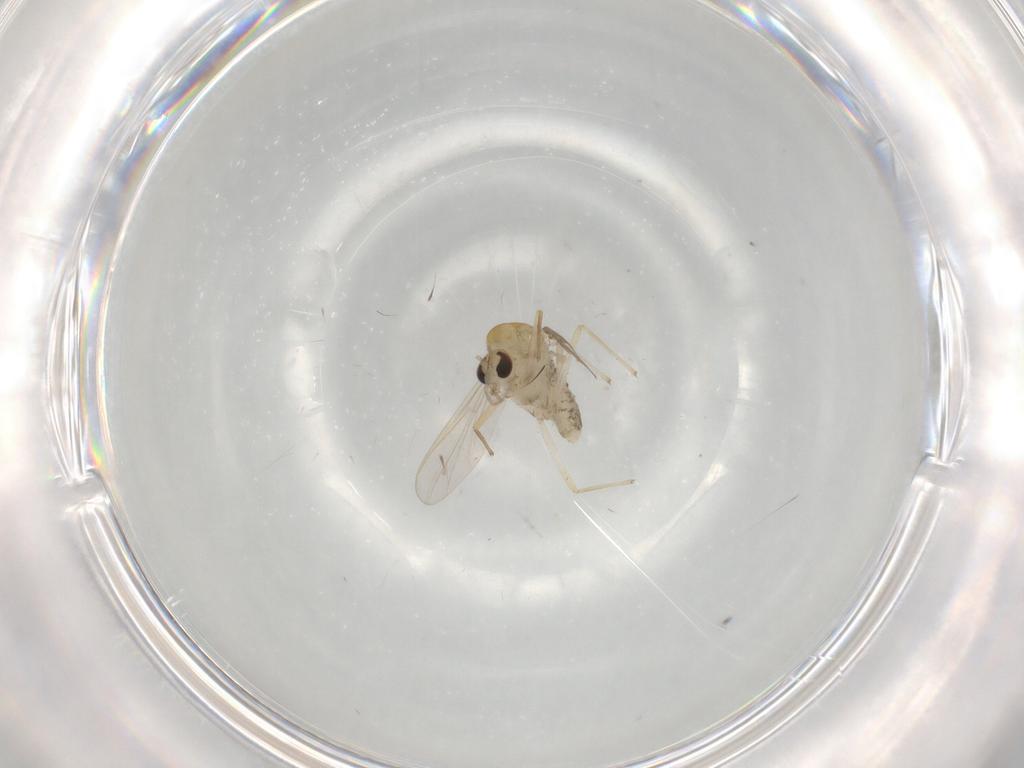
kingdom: Animalia
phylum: Arthropoda
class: Insecta
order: Diptera
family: Chironomidae
